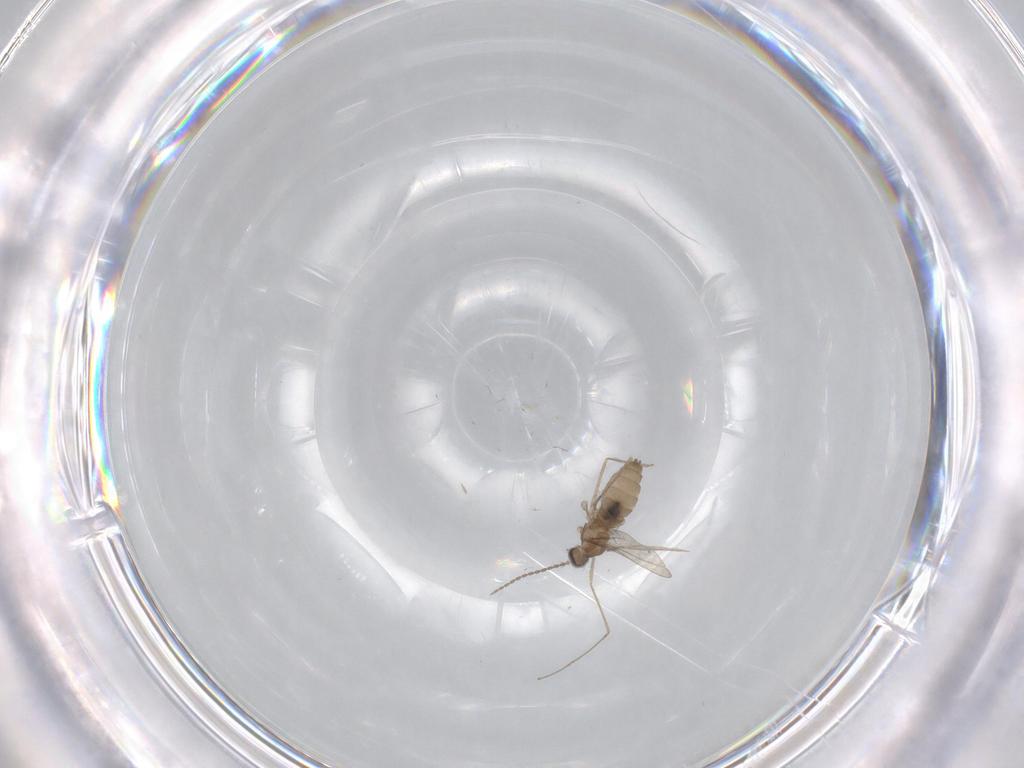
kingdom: Animalia
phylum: Arthropoda
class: Insecta
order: Diptera
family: Cecidomyiidae
